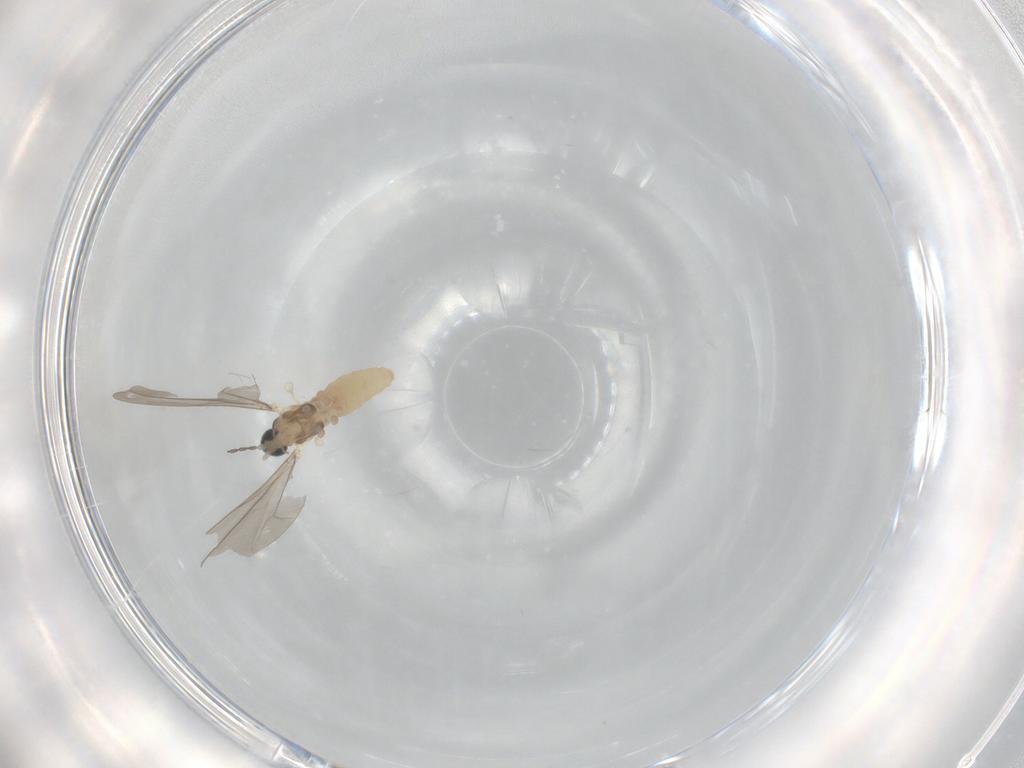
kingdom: Animalia
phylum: Arthropoda
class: Insecta
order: Diptera
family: Cecidomyiidae
